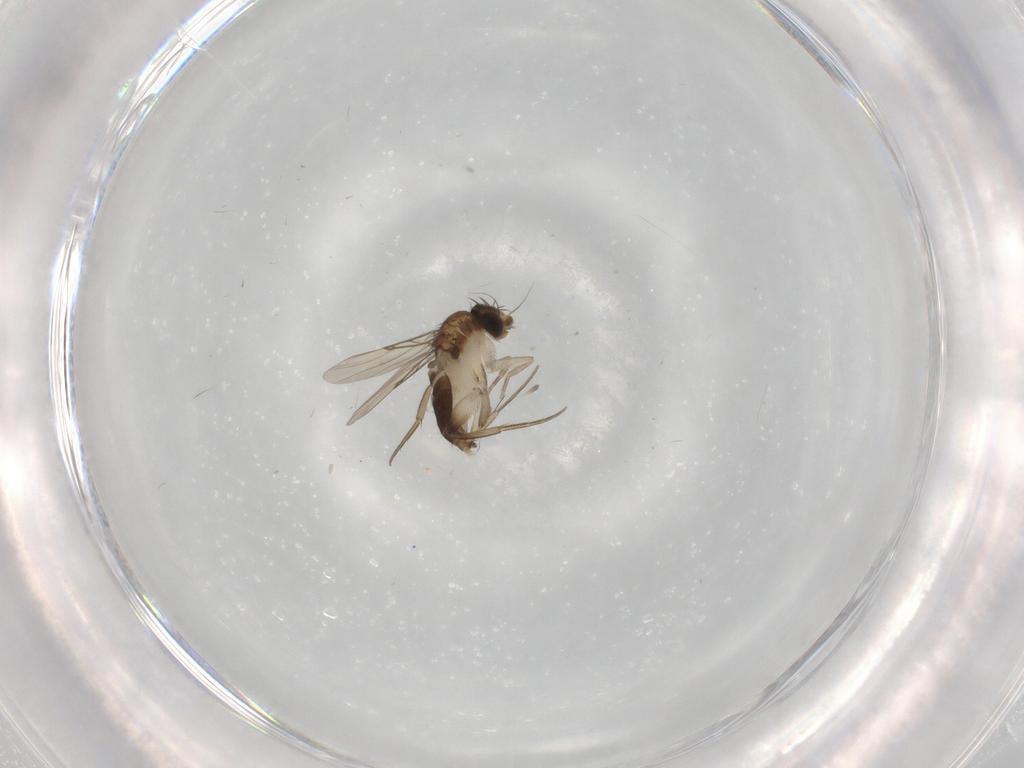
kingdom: Animalia
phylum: Arthropoda
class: Insecta
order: Diptera
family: Phoridae
